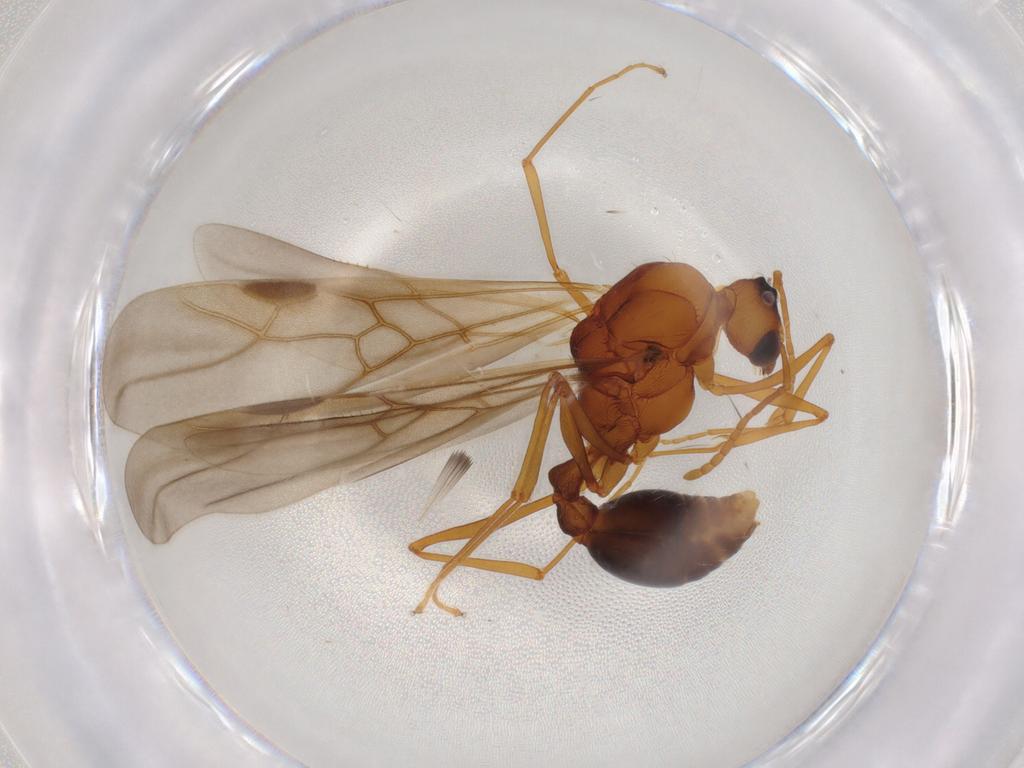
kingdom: Animalia
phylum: Arthropoda
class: Insecta
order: Hymenoptera
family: Formicidae
